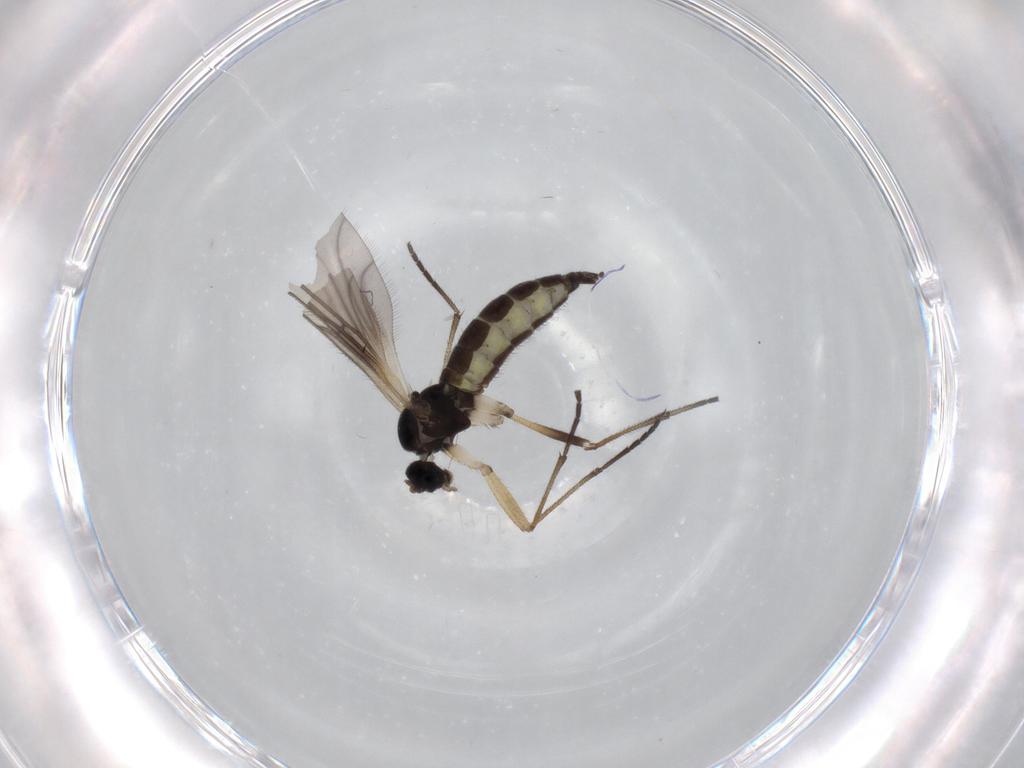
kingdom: Animalia
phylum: Arthropoda
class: Insecta
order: Diptera
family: Sciaridae
